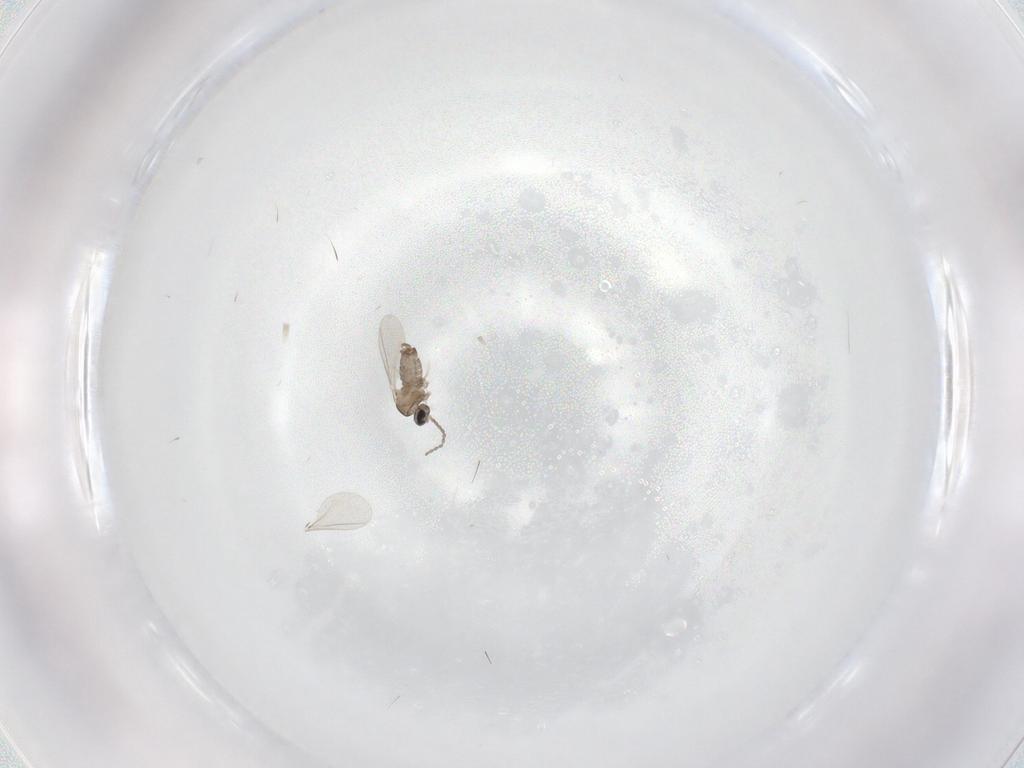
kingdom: Animalia
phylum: Arthropoda
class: Insecta
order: Diptera
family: Cecidomyiidae
